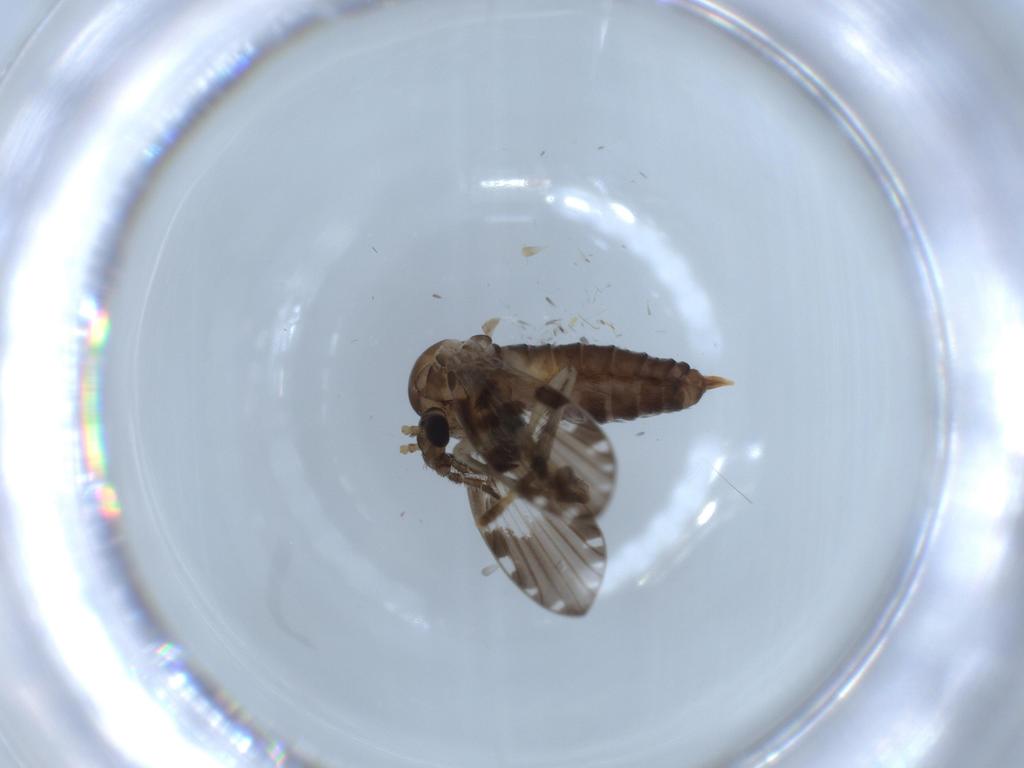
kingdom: Animalia
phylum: Arthropoda
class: Insecta
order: Diptera
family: Psychodidae
